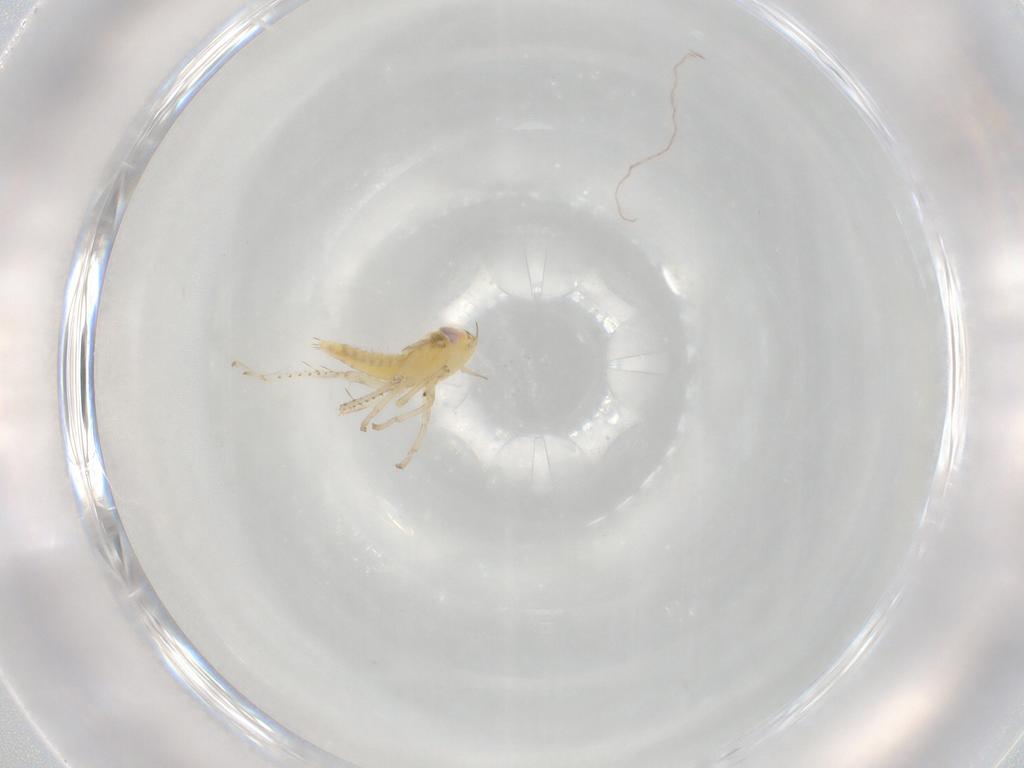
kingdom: Animalia
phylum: Arthropoda
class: Insecta
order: Hemiptera
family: Cicadellidae
